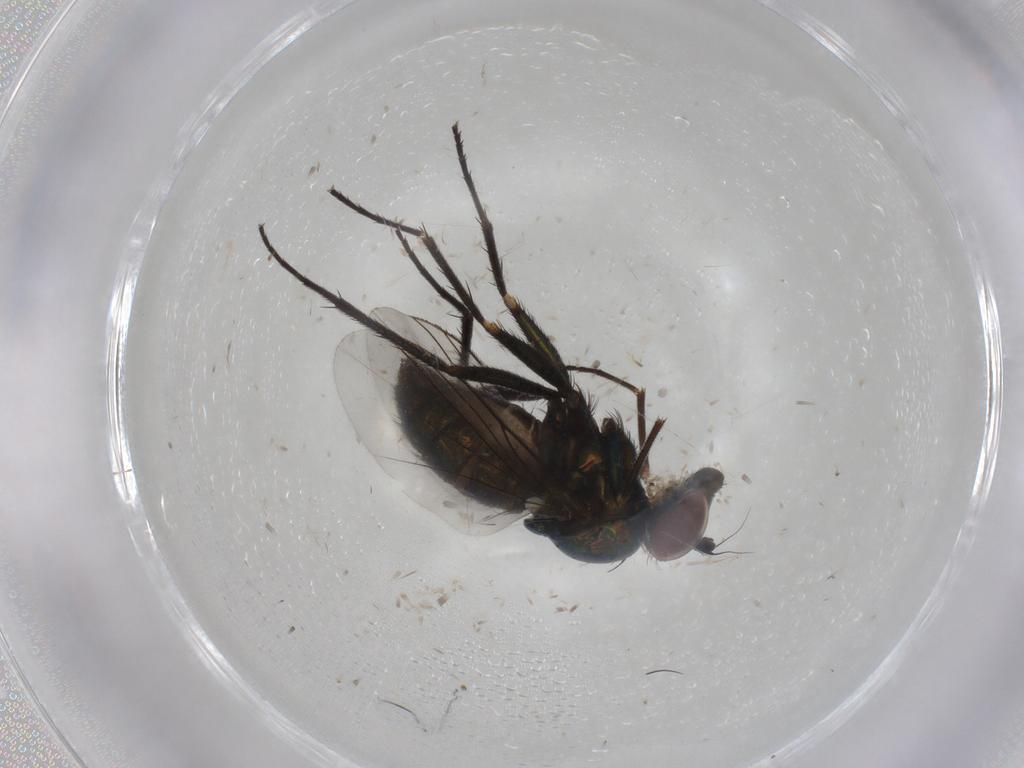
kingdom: Animalia
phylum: Arthropoda
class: Insecta
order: Diptera
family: Dolichopodidae
